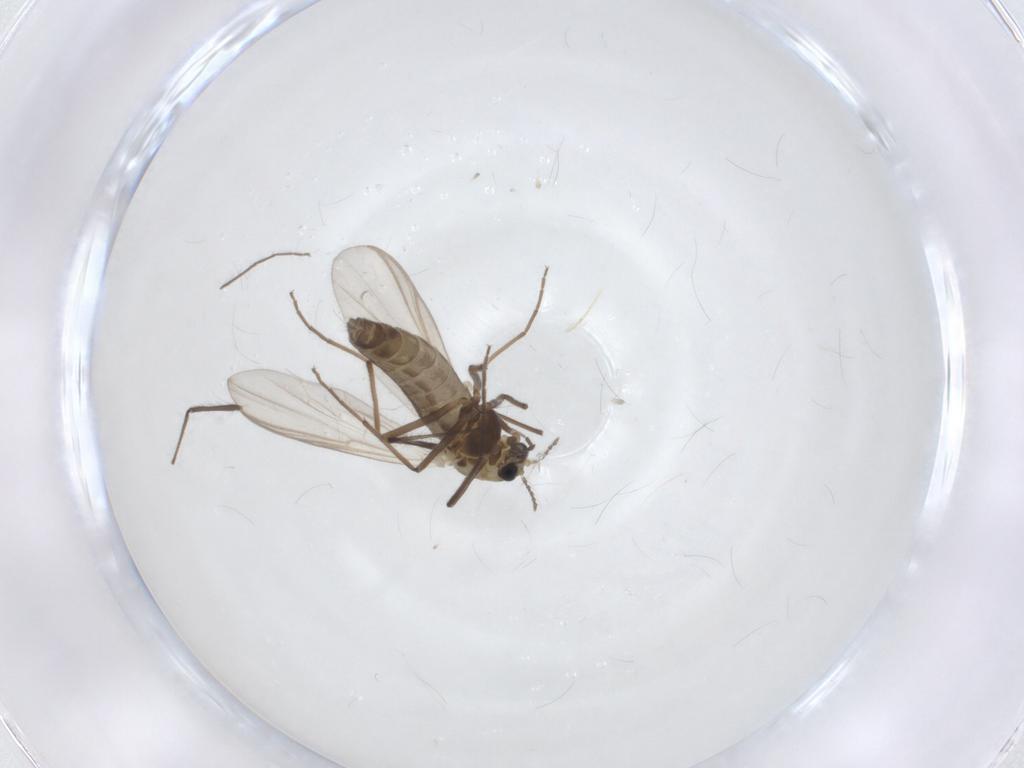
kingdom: Animalia
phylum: Arthropoda
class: Insecta
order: Diptera
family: Chironomidae
